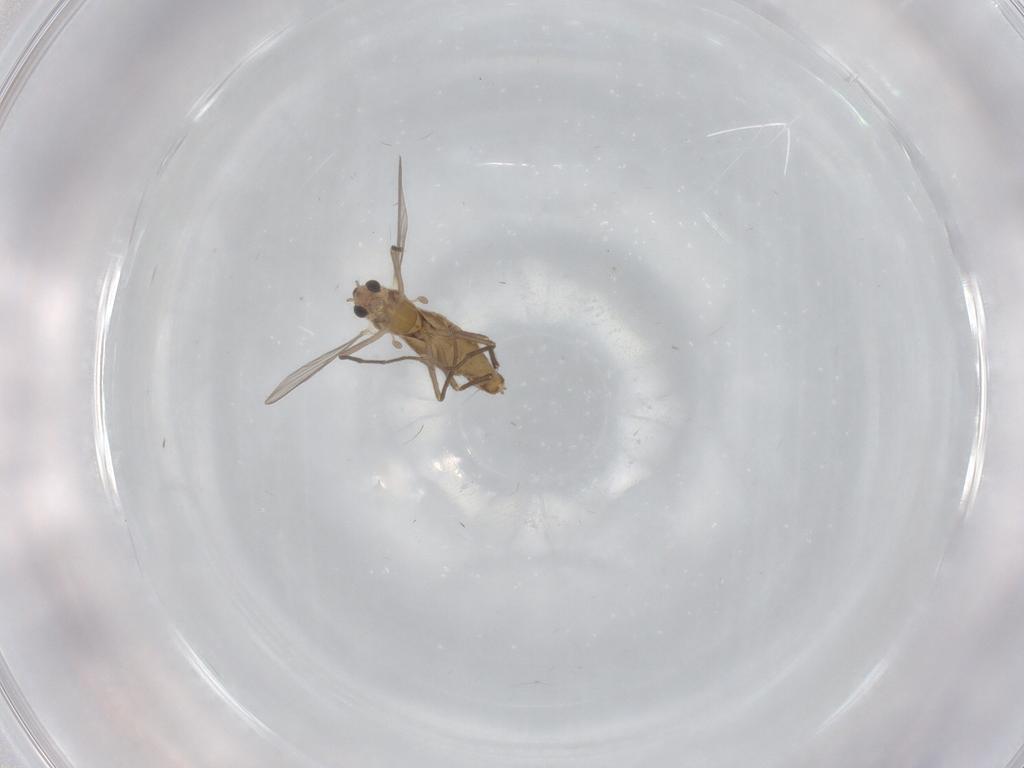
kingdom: Animalia
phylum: Arthropoda
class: Insecta
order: Diptera
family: Chironomidae
